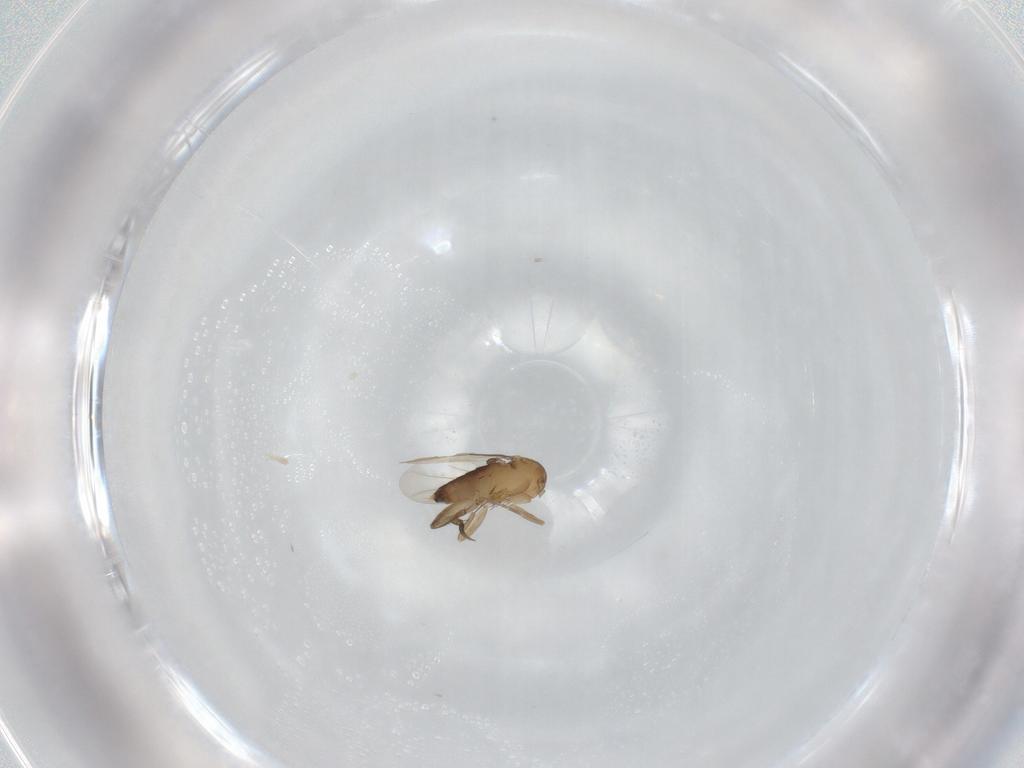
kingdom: Animalia
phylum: Arthropoda
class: Insecta
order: Diptera
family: Phoridae
